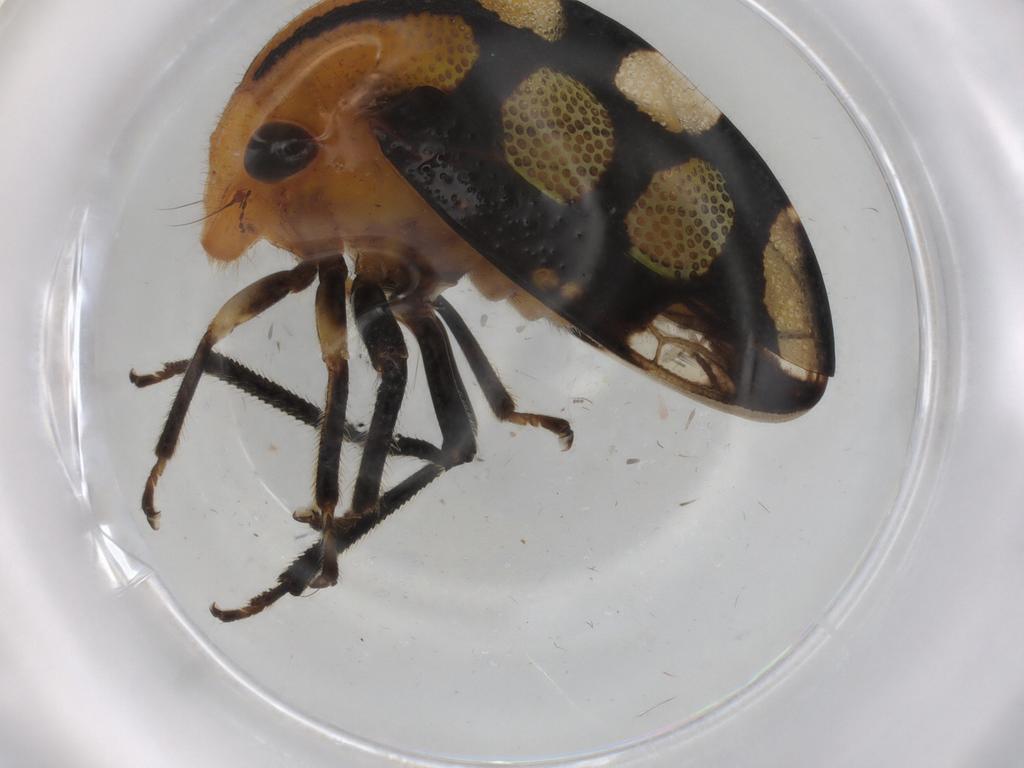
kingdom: Animalia
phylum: Arthropoda
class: Insecta
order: Hemiptera
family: Membracidae
